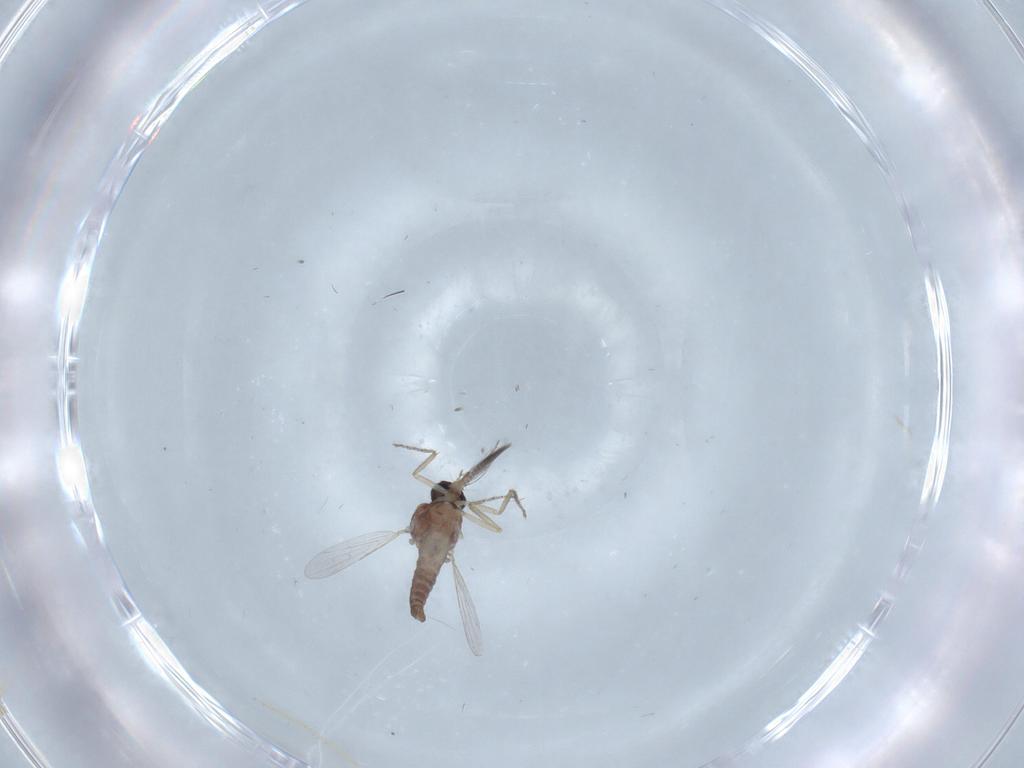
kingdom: Animalia
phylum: Arthropoda
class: Insecta
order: Diptera
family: Ceratopogonidae
